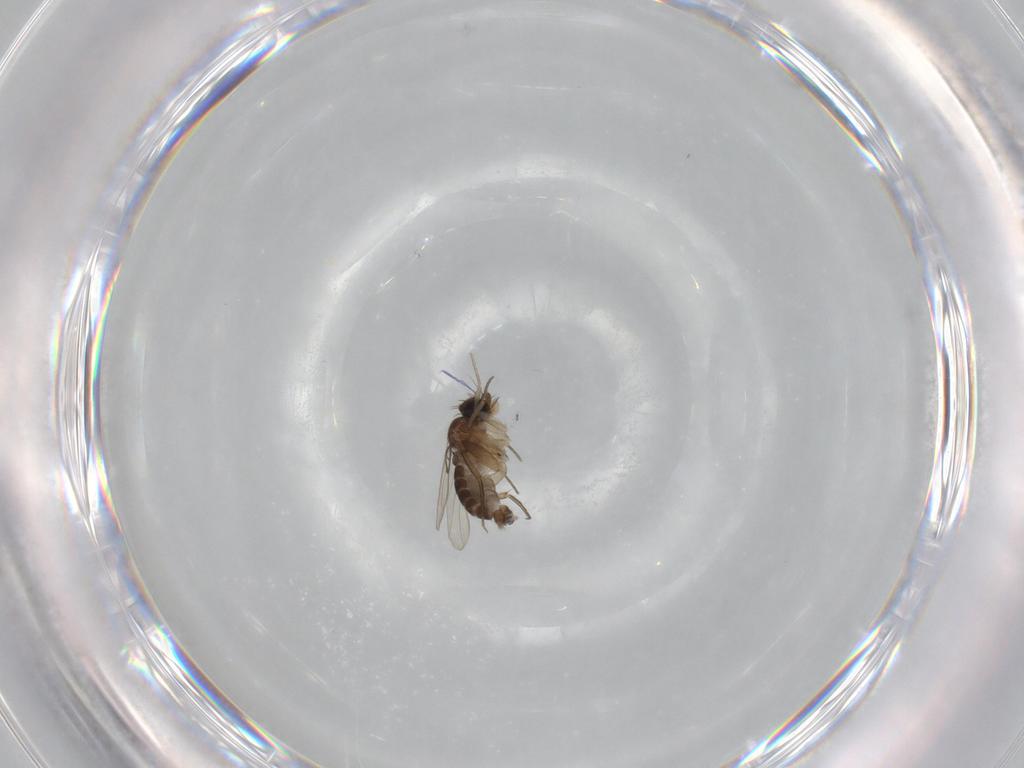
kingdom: Animalia
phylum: Arthropoda
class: Insecta
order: Diptera
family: Phoridae
